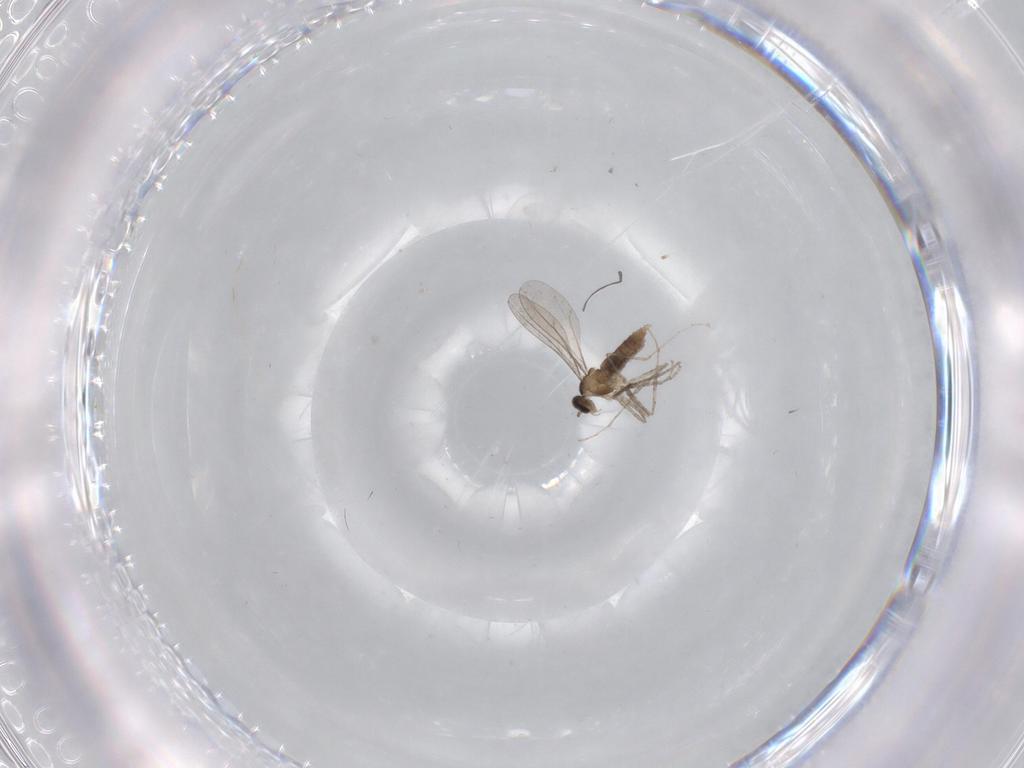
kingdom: Animalia
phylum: Arthropoda
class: Insecta
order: Diptera
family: Chironomidae
